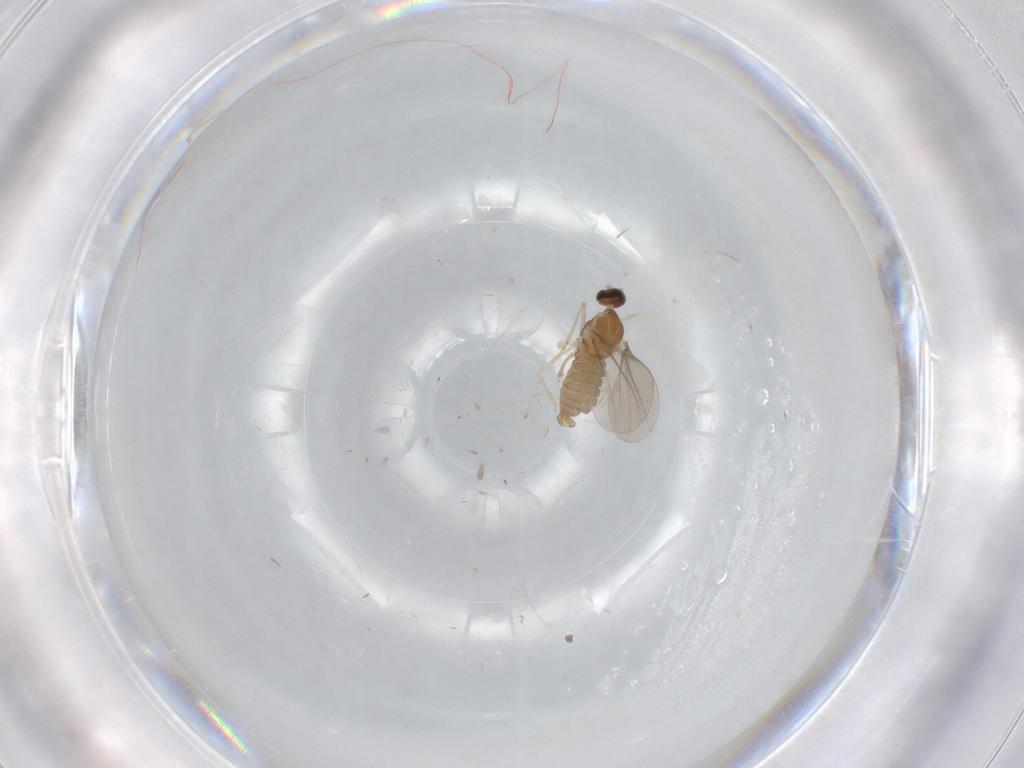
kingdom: Animalia
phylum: Arthropoda
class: Insecta
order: Diptera
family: Cecidomyiidae
